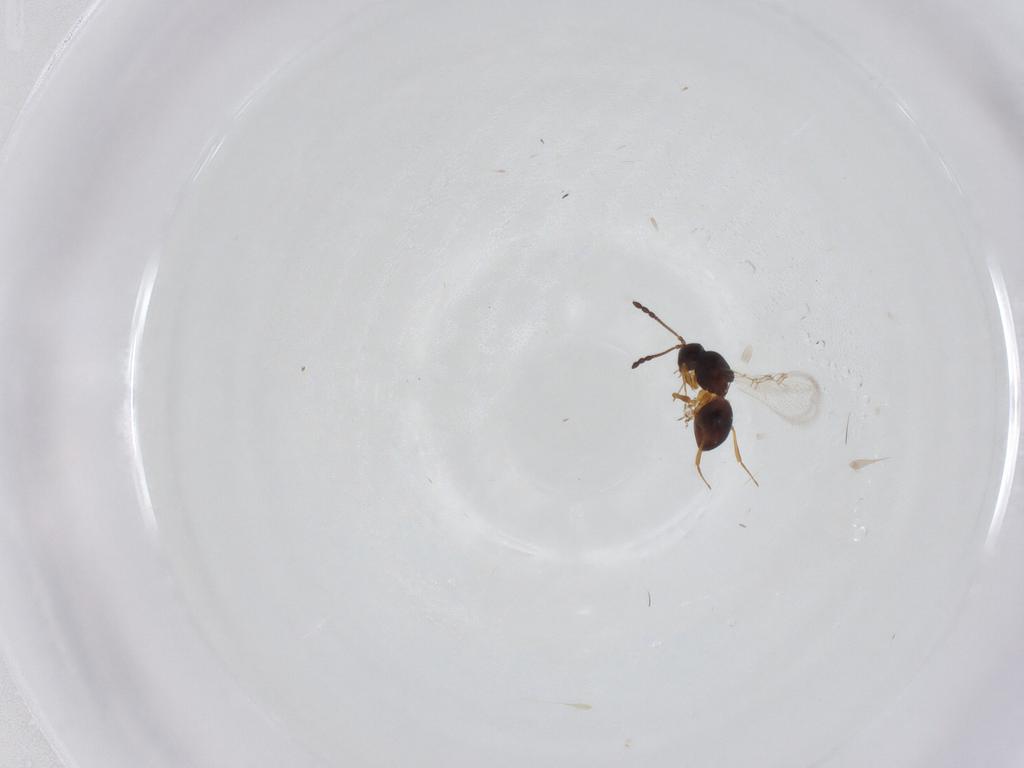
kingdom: Animalia
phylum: Arthropoda
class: Insecta
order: Hymenoptera
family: Figitidae
